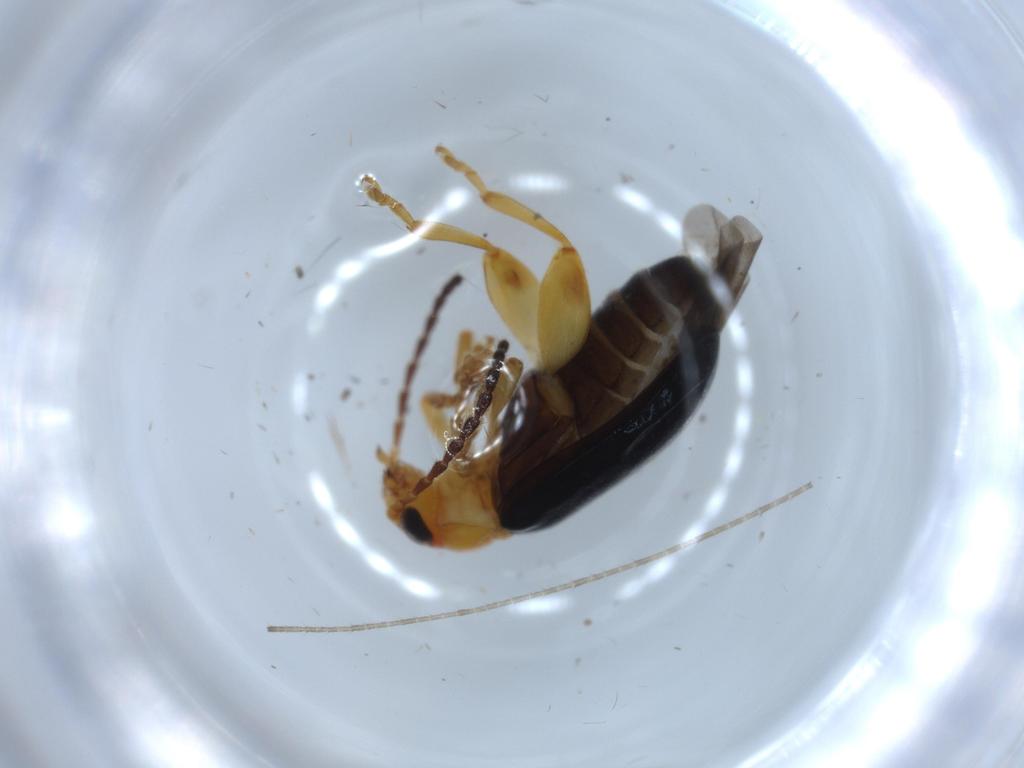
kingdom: Animalia
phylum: Arthropoda
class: Insecta
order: Coleoptera
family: Chrysomelidae
